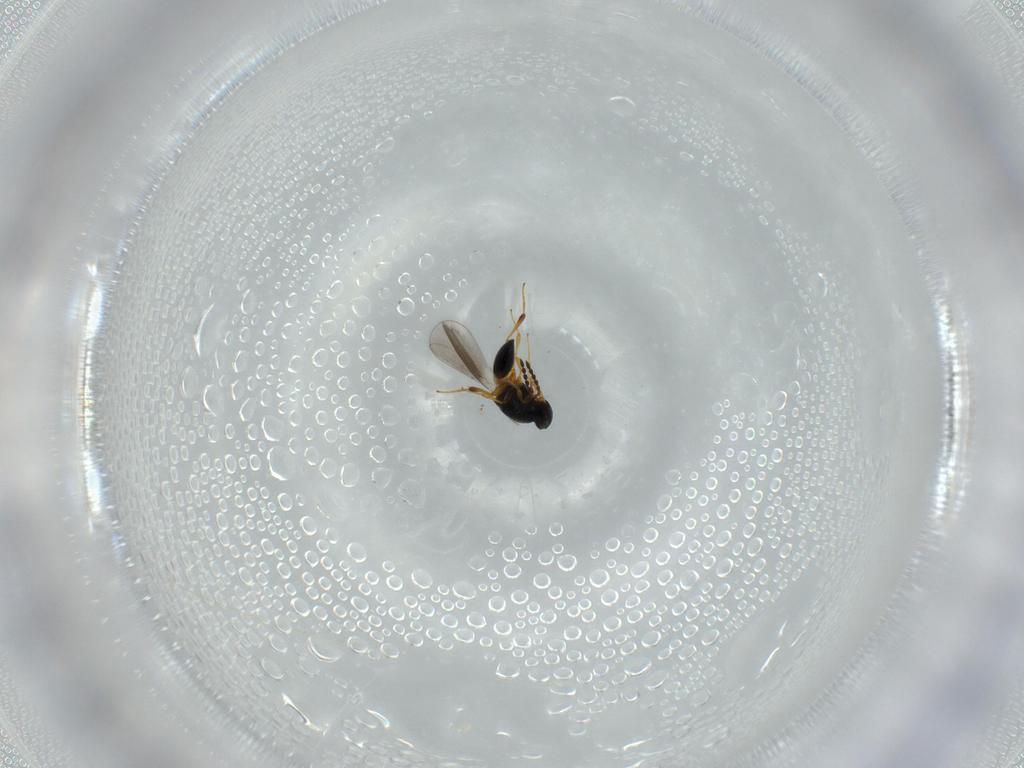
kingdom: Animalia
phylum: Arthropoda
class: Insecta
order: Hymenoptera
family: Platygastridae
